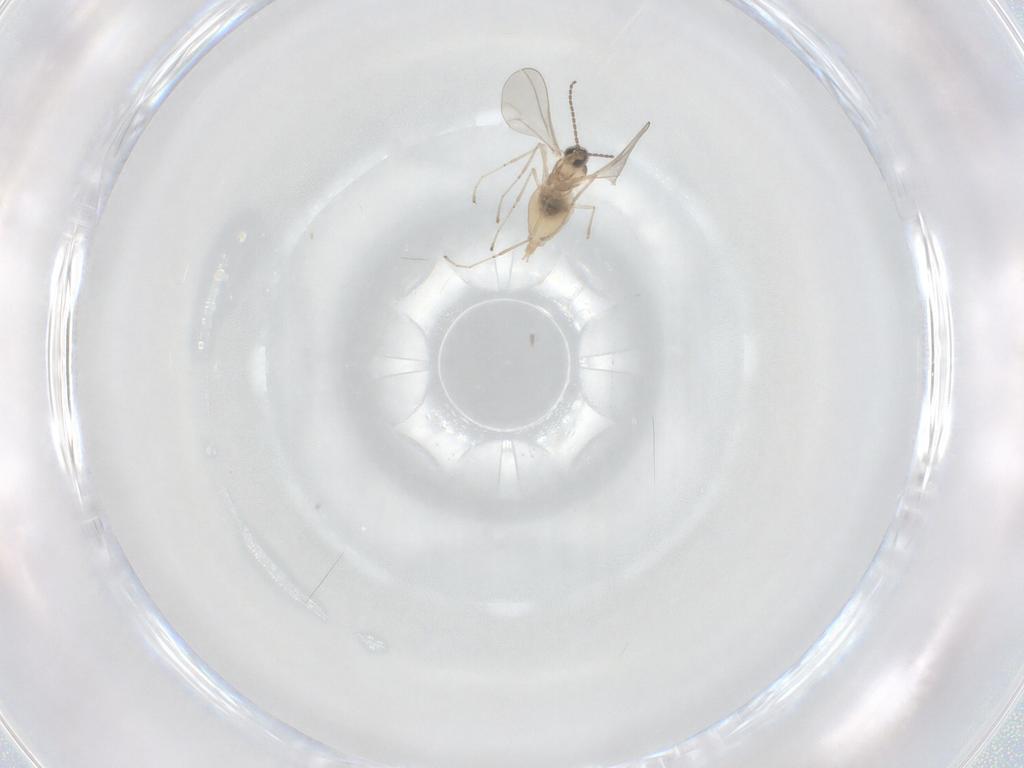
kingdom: Animalia
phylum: Arthropoda
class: Insecta
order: Diptera
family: Cecidomyiidae
